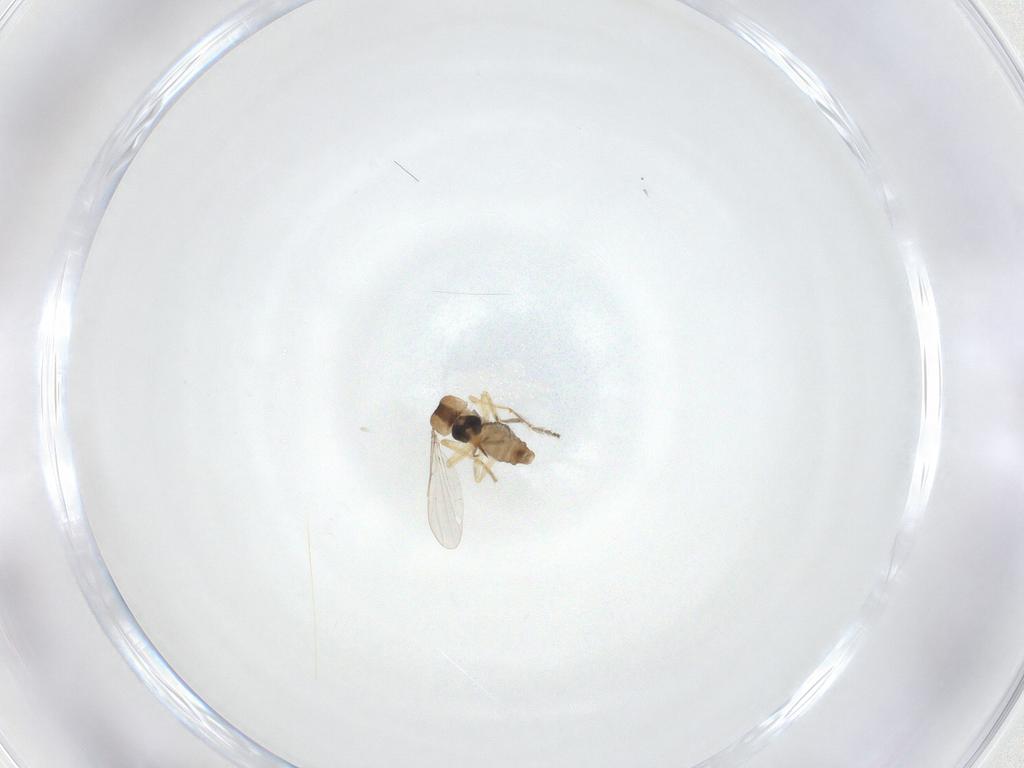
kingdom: Animalia
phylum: Arthropoda
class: Insecta
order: Diptera
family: Ceratopogonidae
